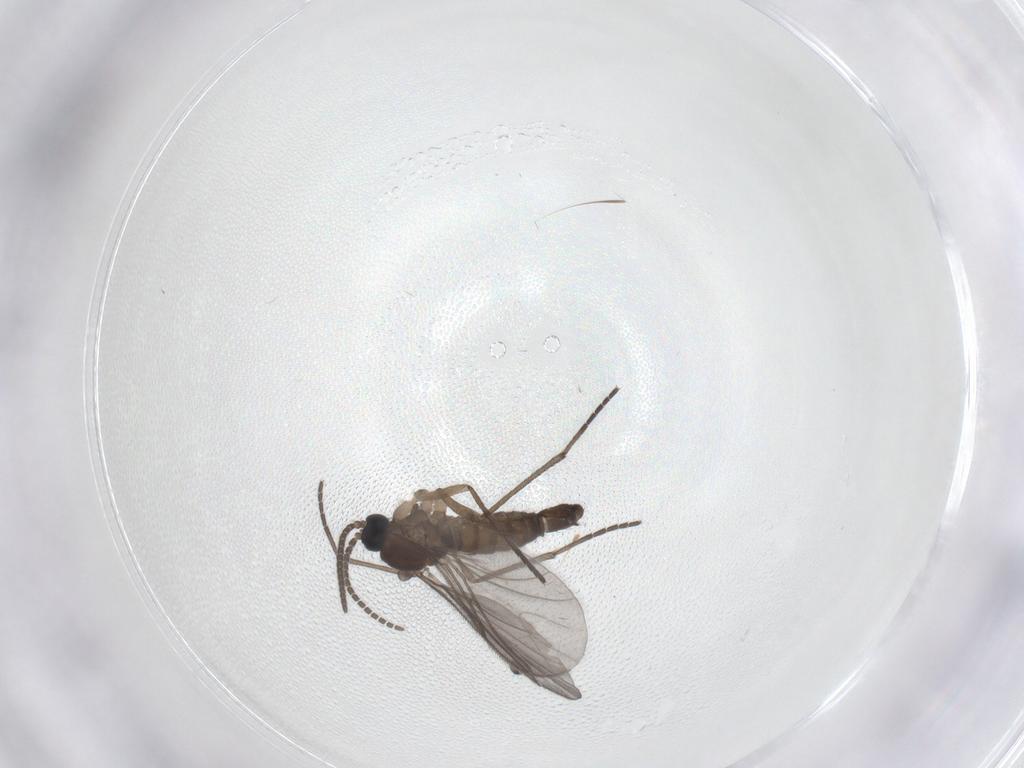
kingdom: Animalia
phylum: Arthropoda
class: Insecta
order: Diptera
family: Sciaridae
